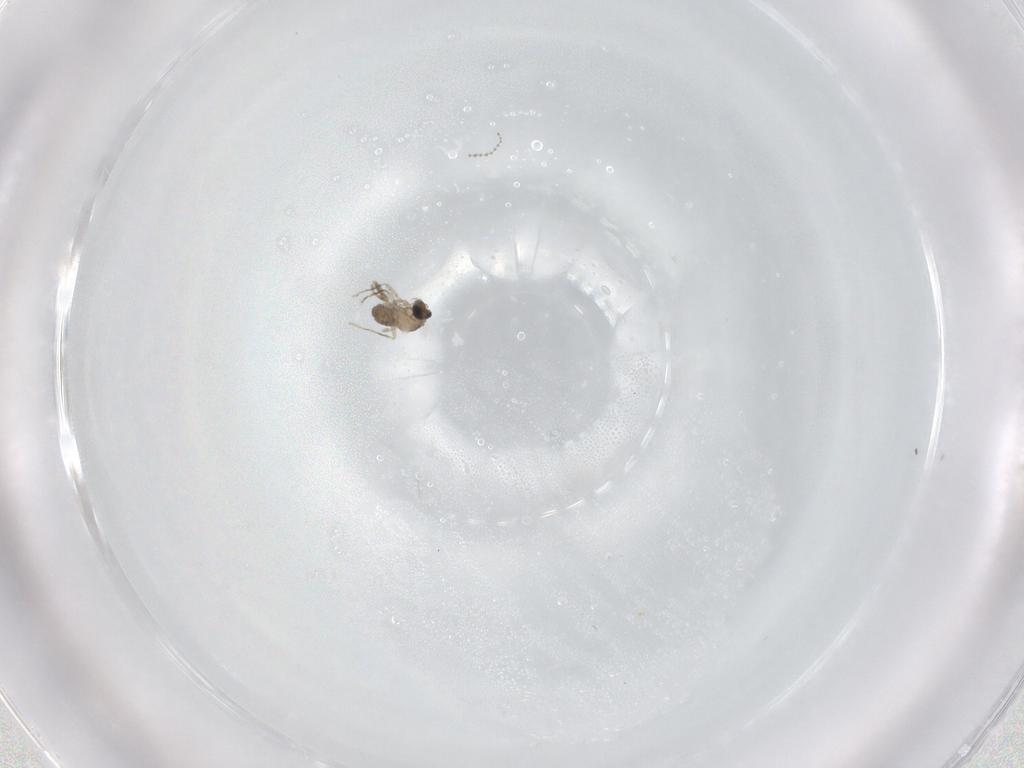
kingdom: Animalia
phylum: Arthropoda
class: Insecta
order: Diptera
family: Cecidomyiidae
